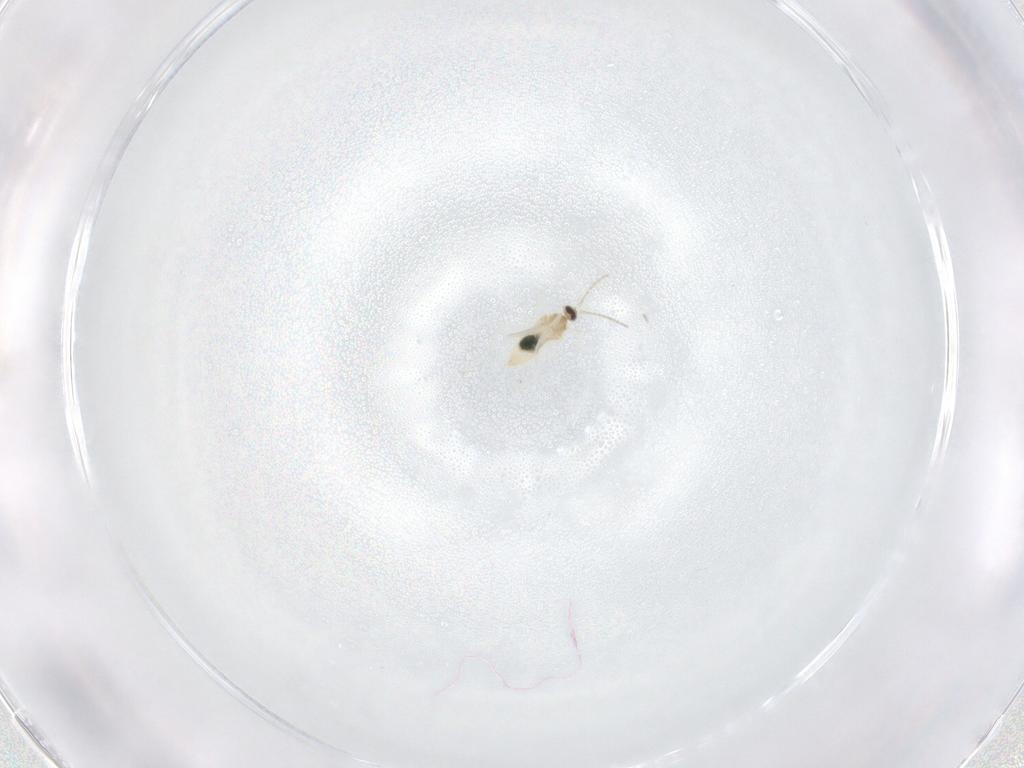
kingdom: Animalia
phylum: Arthropoda
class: Insecta
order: Diptera
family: Cecidomyiidae
